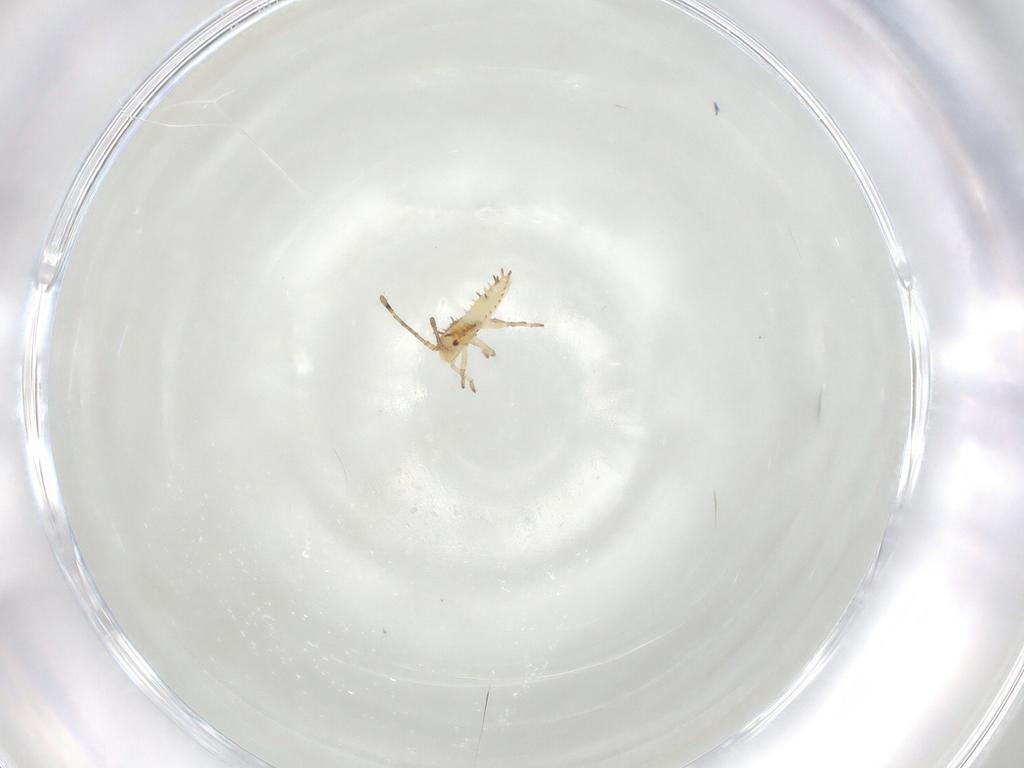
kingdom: Animalia
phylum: Arthropoda
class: Insecta
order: Hemiptera
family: Tingidae
